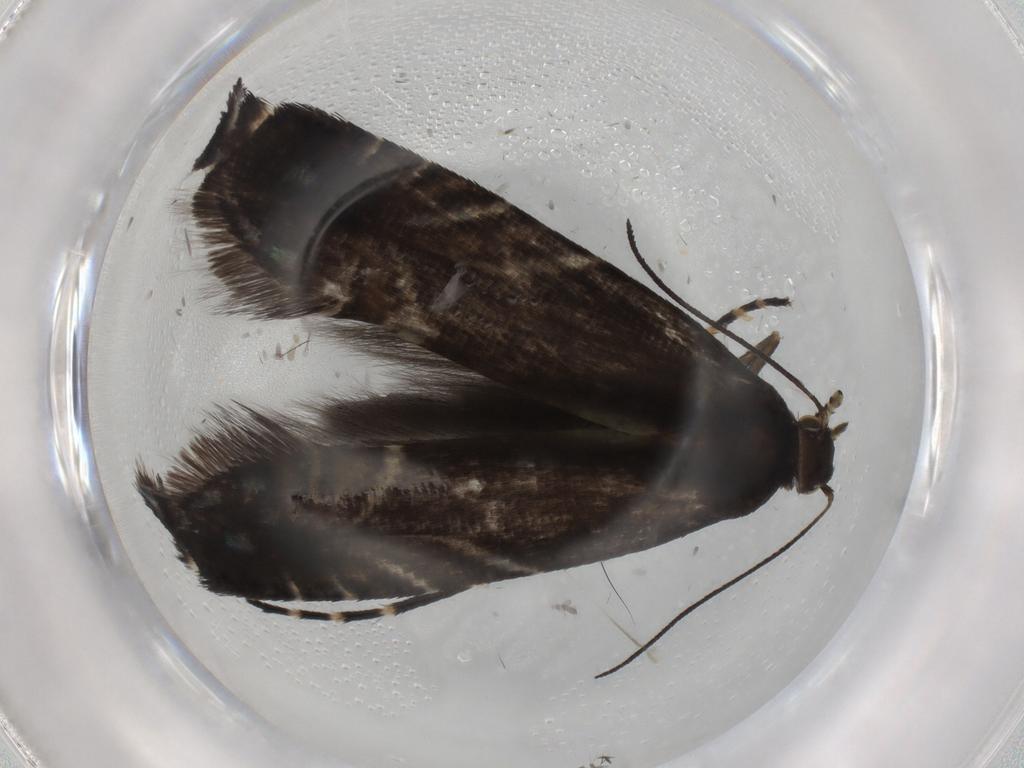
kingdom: Animalia
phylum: Arthropoda
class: Insecta
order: Lepidoptera
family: Glyphipterigidae
